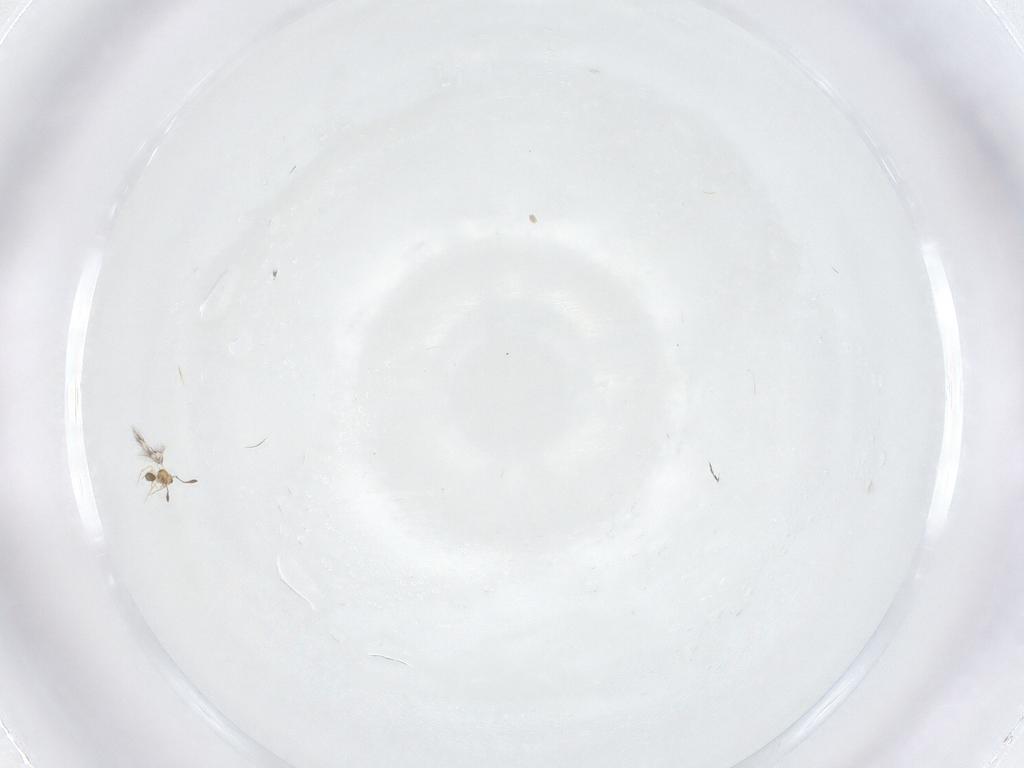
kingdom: Animalia
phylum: Arthropoda
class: Insecta
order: Hymenoptera
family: Mymarommatidae
